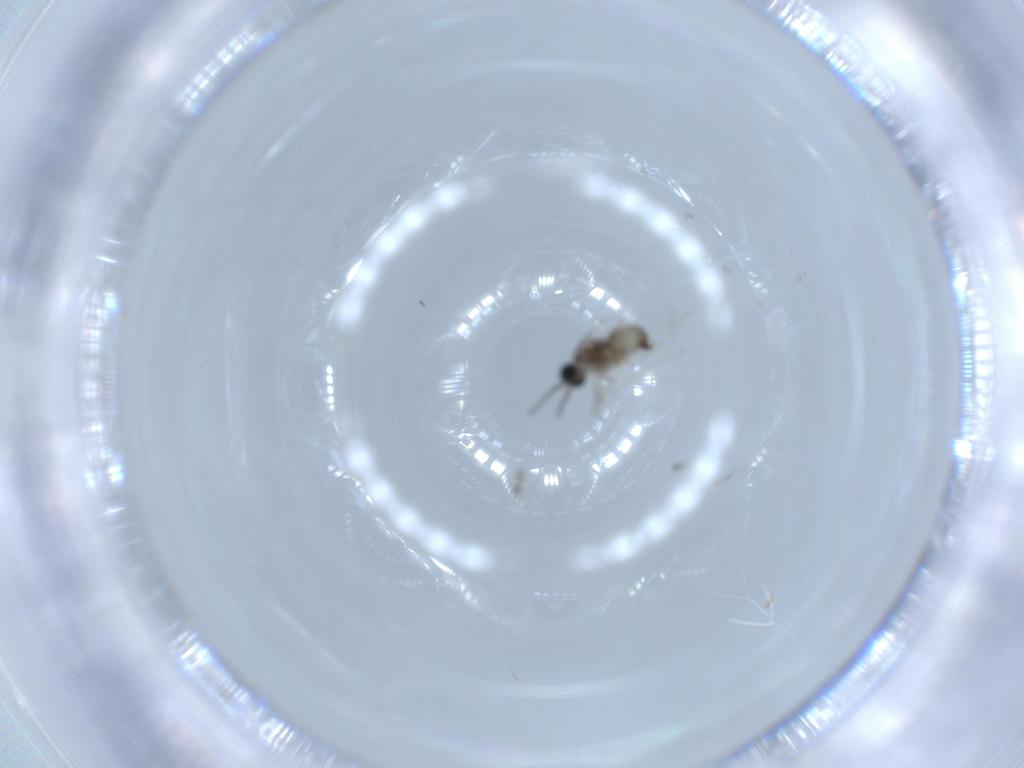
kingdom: Animalia
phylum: Arthropoda
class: Insecta
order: Diptera
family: Cecidomyiidae
